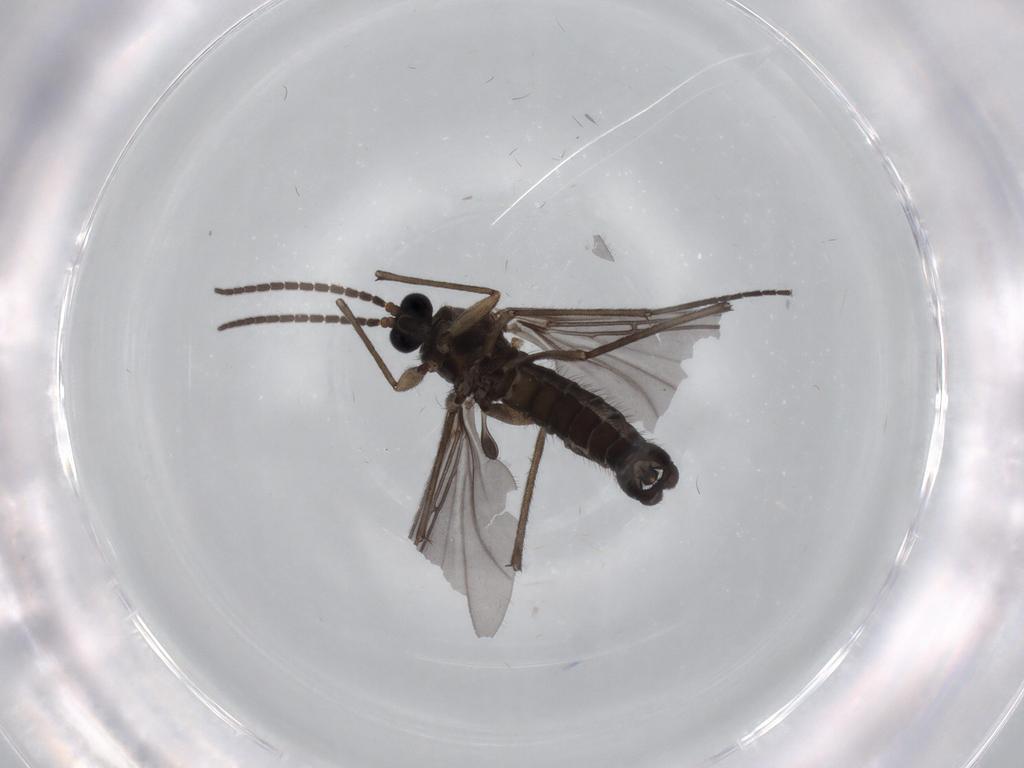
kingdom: Animalia
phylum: Arthropoda
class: Insecta
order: Diptera
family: Sciaridae
